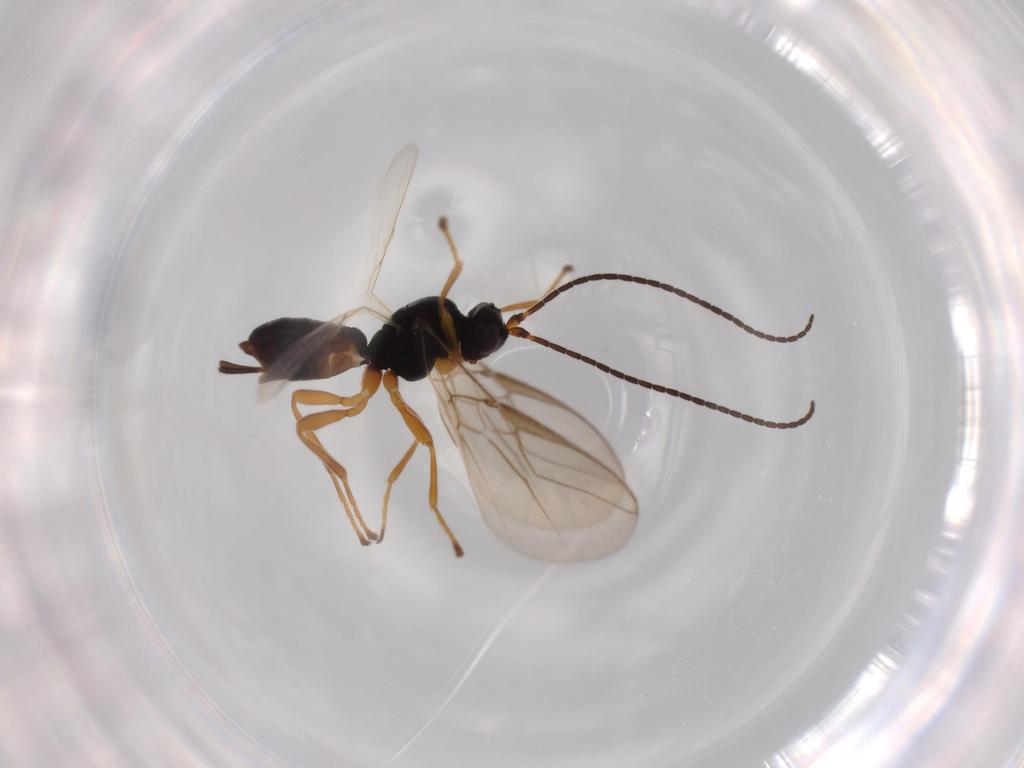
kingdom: Animalia
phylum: Arthropoda
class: Insecta
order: Hymenoptera
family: Braconidae
